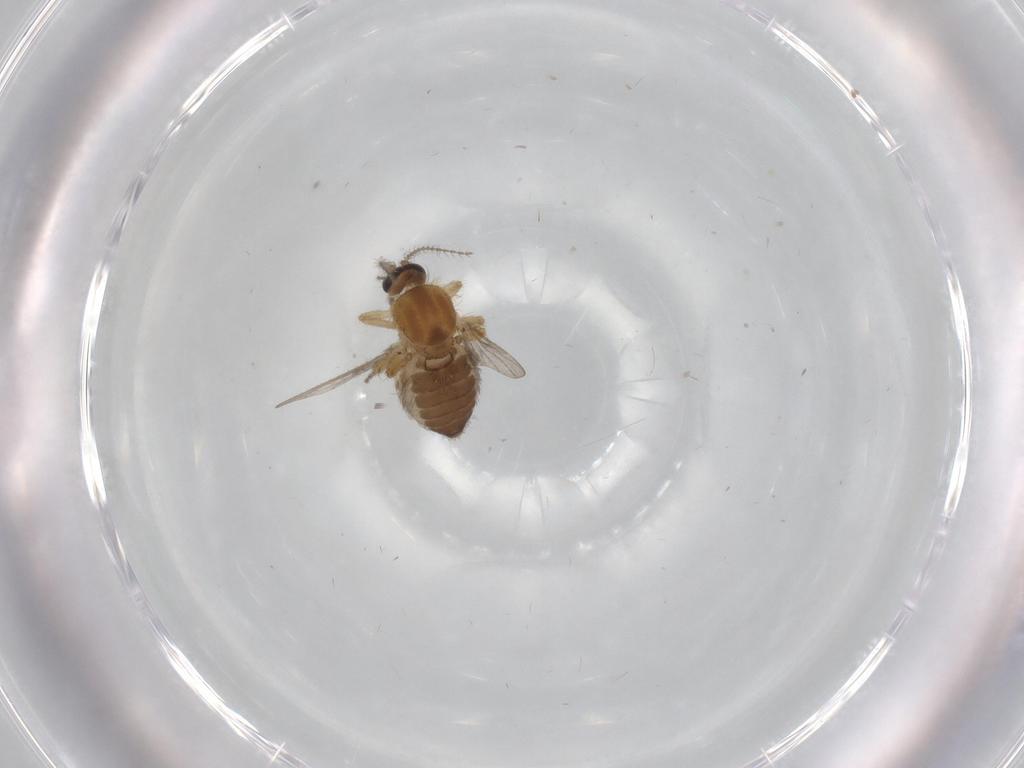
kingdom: Animalia
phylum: Arthropoda
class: Insecta
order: Diptera
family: Ceratopogonidae
